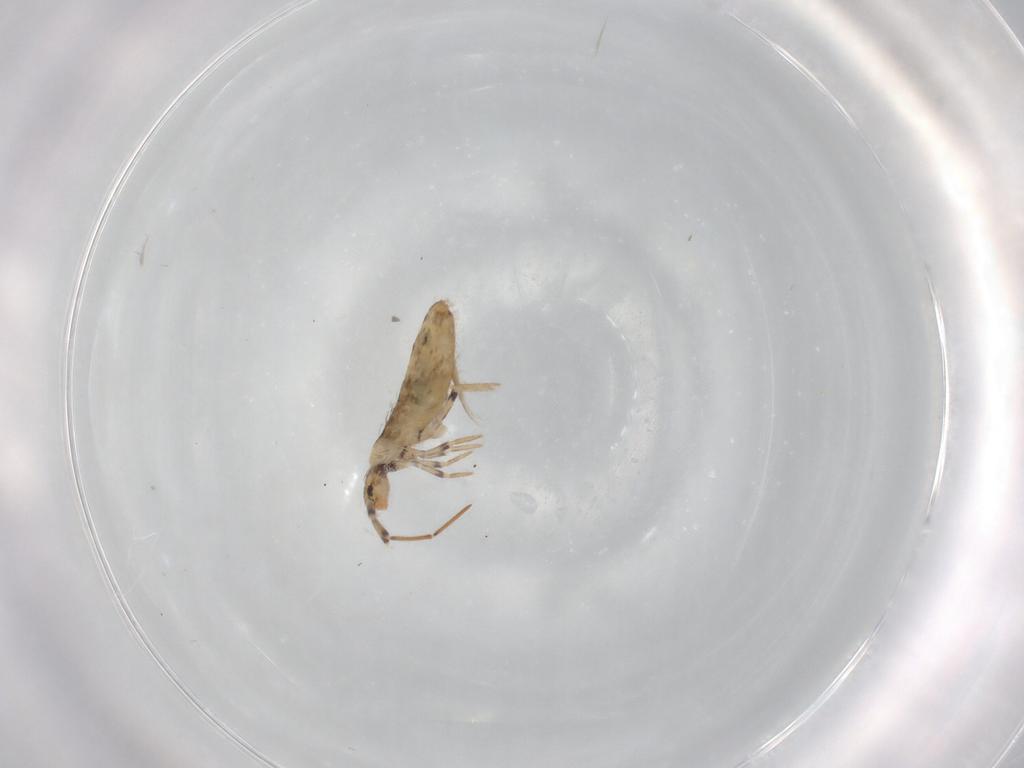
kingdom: Animalia
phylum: Arthropoda
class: Collembola
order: Entomobryomorpha
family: Entomobryidae
